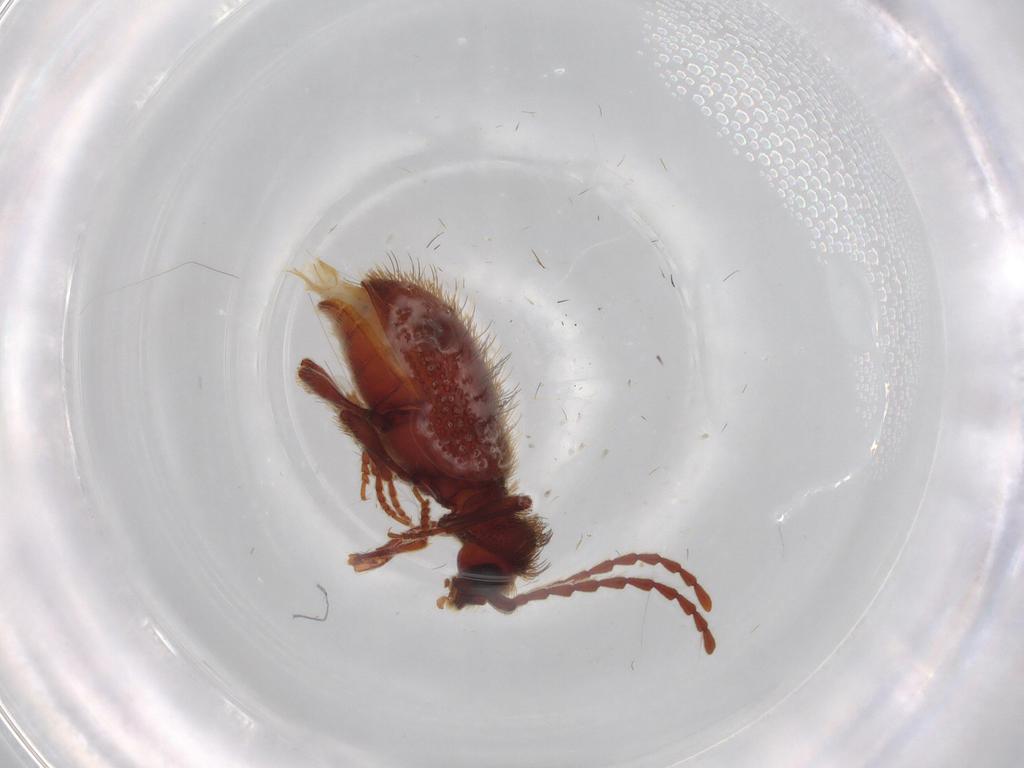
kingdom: Animalia
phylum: Arthropoda
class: Insecta
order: Coleoptera
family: Ptinidae
